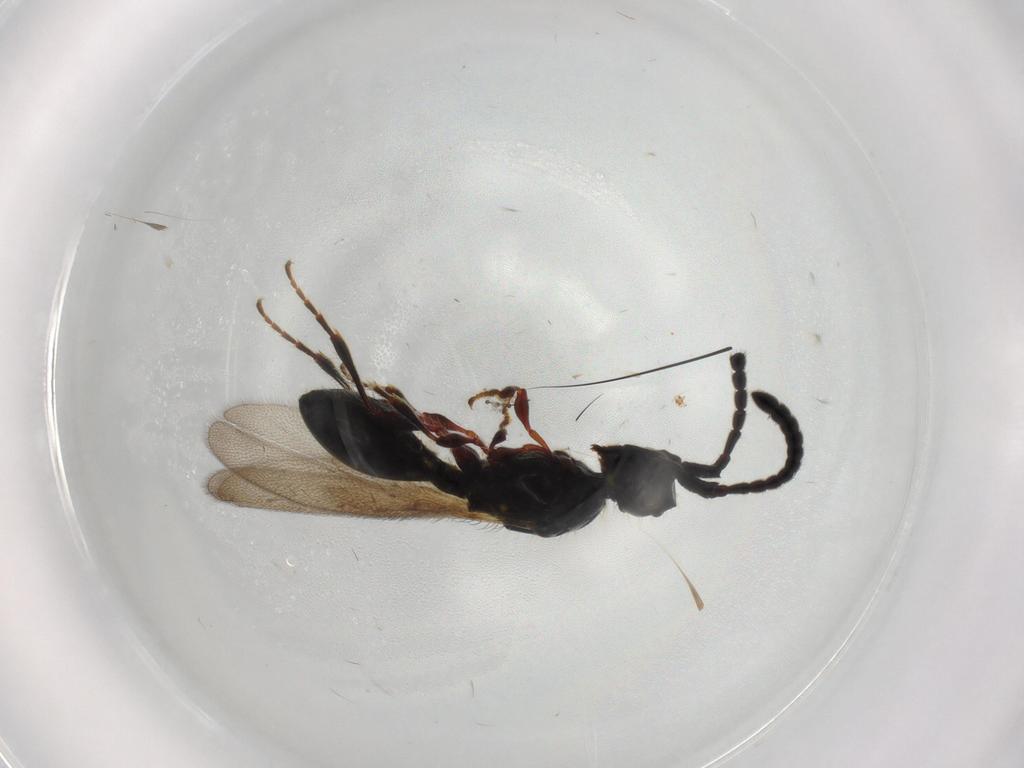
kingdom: Animalia
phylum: Arthropoda
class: Insecta
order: Hymenoptera
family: Diapriidae
